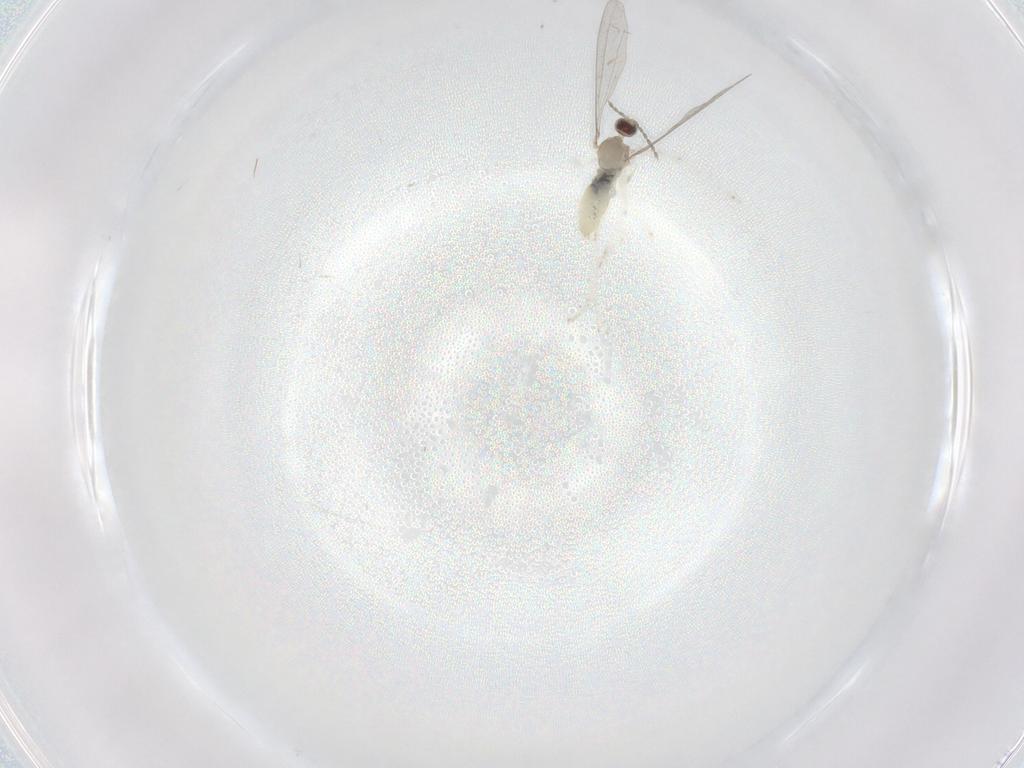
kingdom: Animalia
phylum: Arthropoda
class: Insecta
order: Diptera
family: Cecidomyiidae
